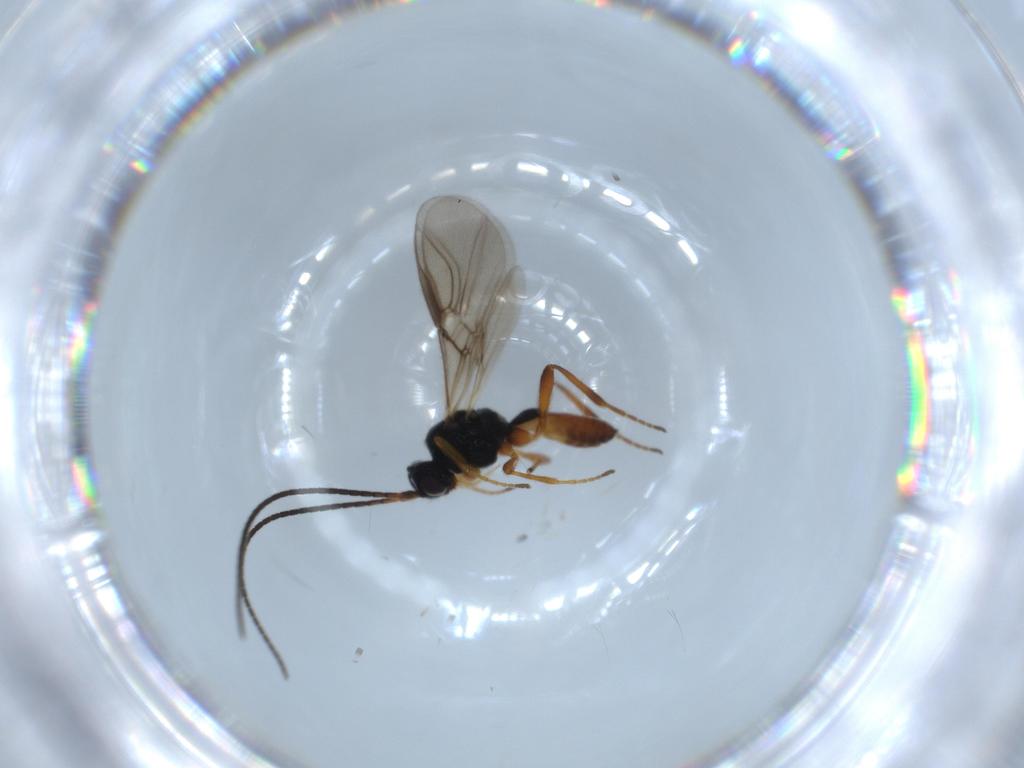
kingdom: Animalia
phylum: Arthropoda
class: Insecta
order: Hymenoptera
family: Braconidae
